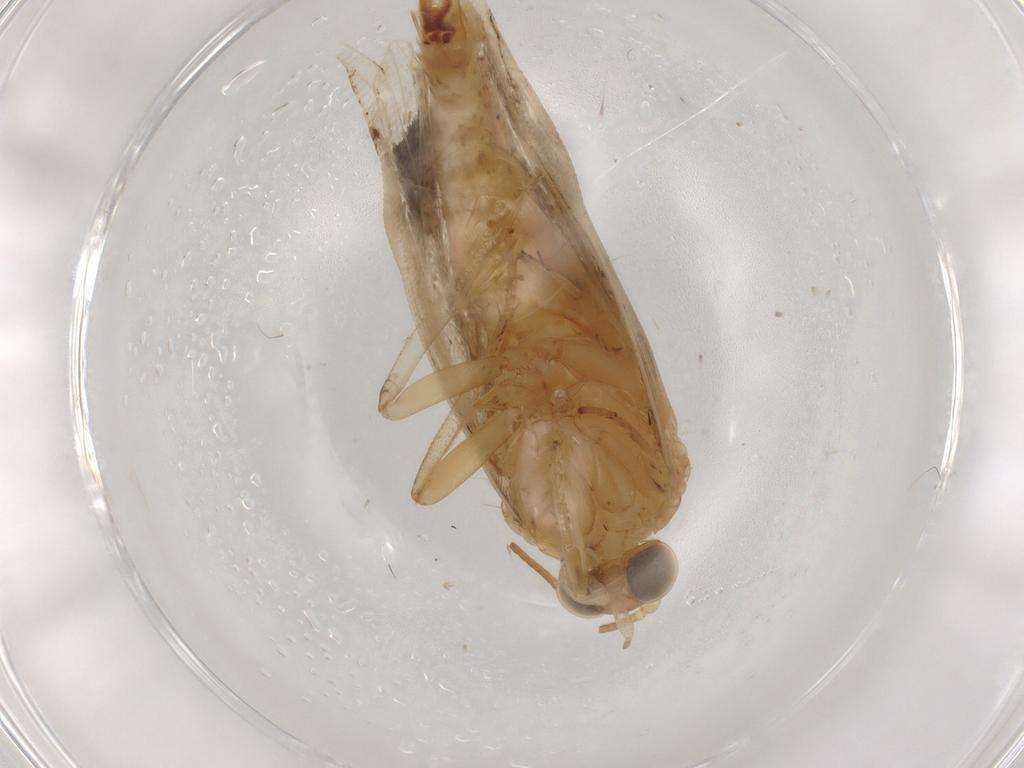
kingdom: Animalia
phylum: Arthropoda
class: Insecta
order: Lepidoptera
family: Tortricidae
